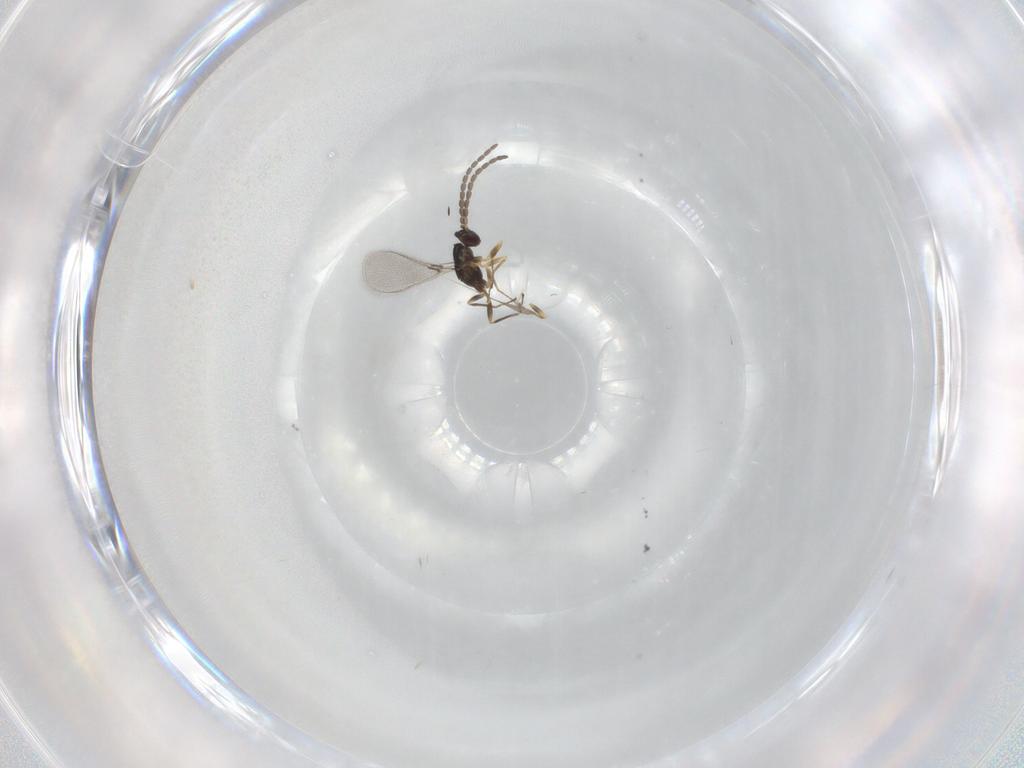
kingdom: Animalia
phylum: Arthropoda
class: Insecta
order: Hymenoptera
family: Mymaridae
